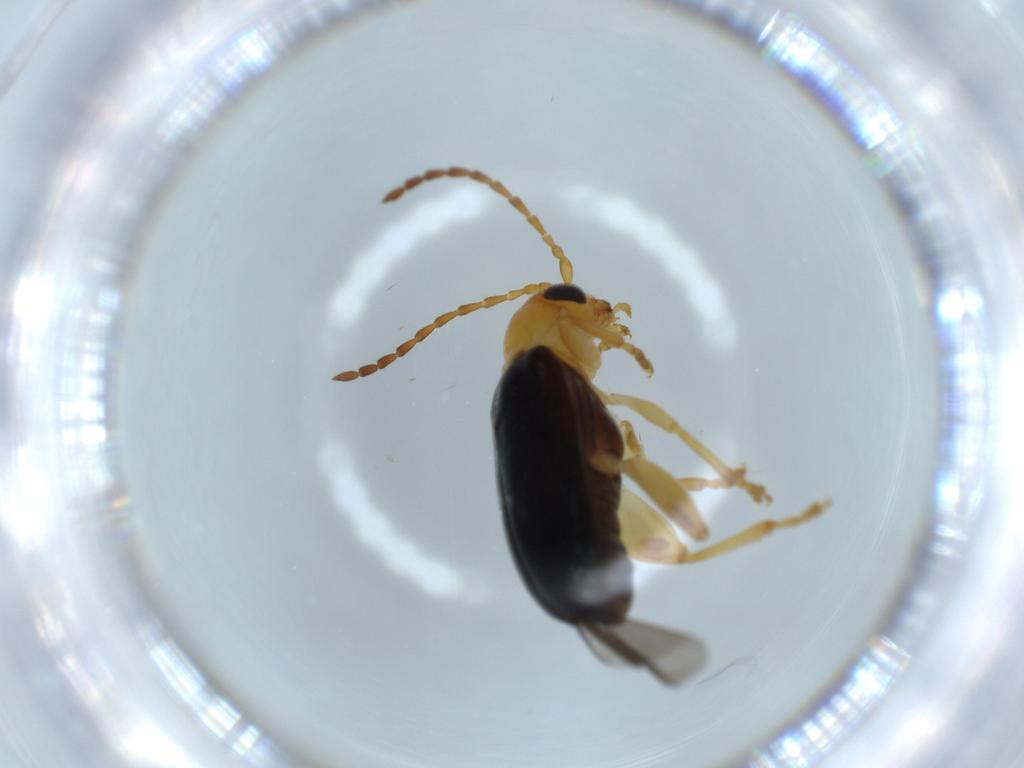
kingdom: Animalia
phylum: Arthropoda
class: Insecta
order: Coleoptera
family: Chrysomelidae
